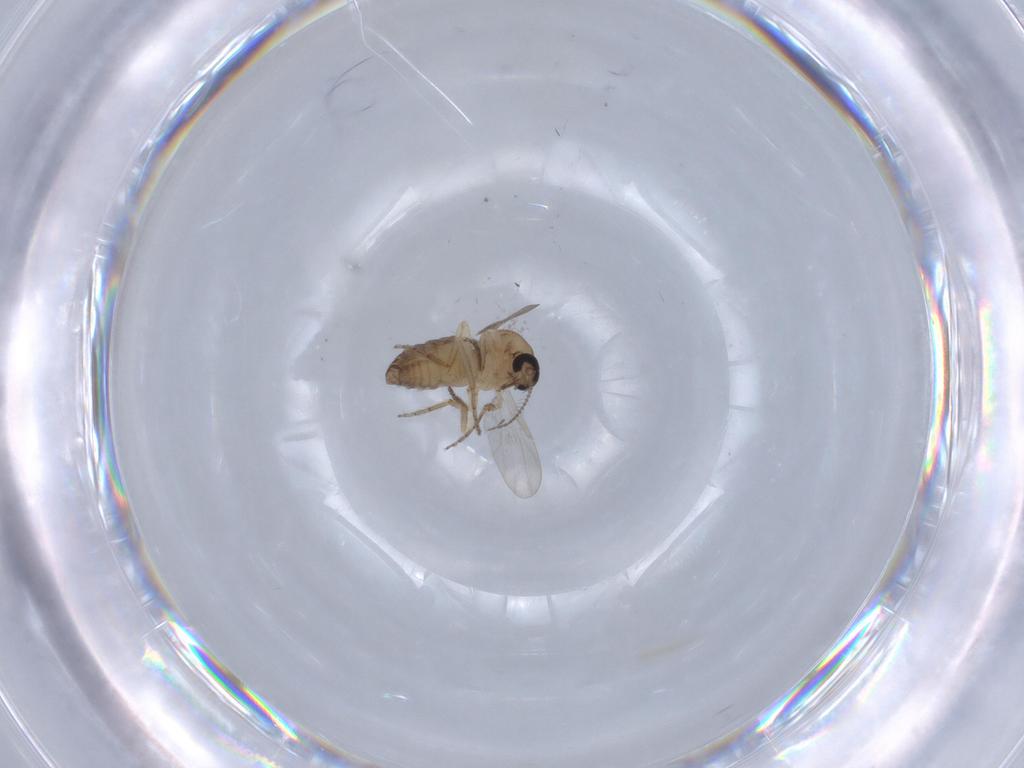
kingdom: Animalia
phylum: Arthropoda
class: Insecta
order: Diptera
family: Ceratopogonidae
